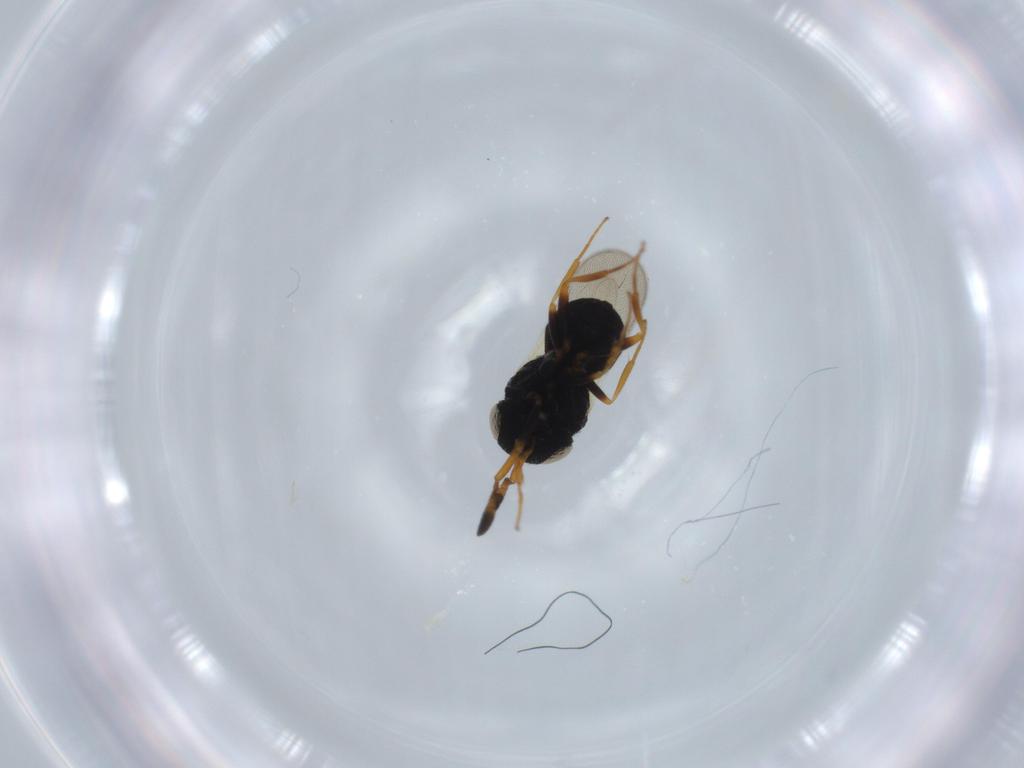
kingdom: Animalia
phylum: Arthropoda
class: Insecta
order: Hymenoptera
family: Scelionidae
